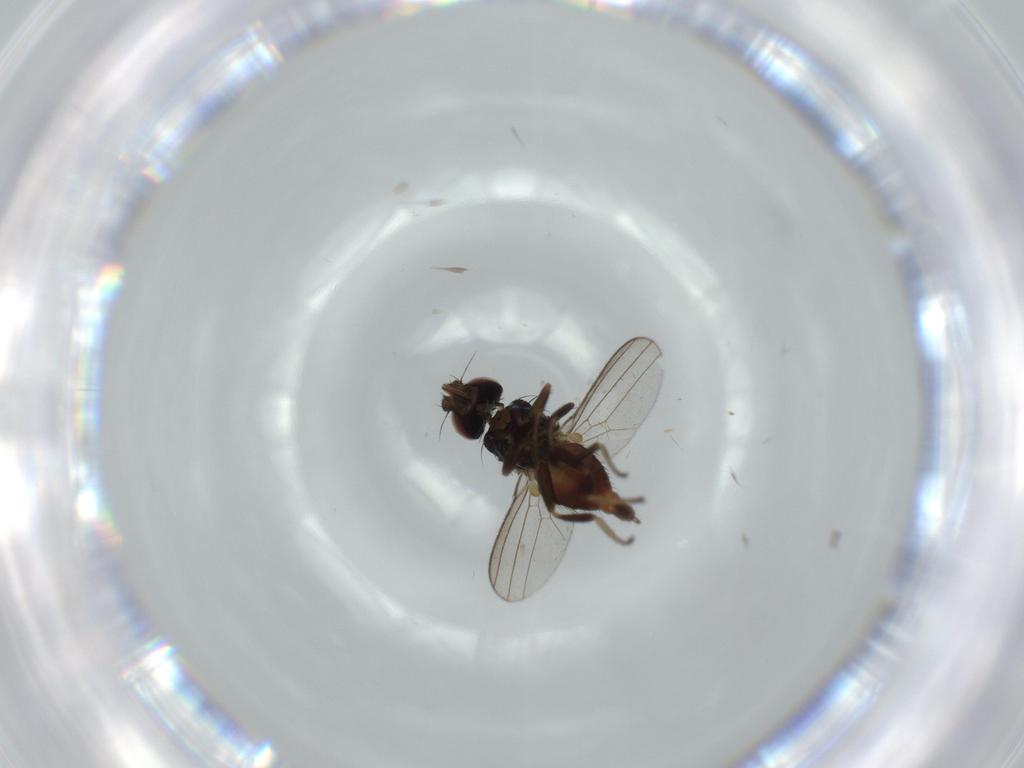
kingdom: Animalia
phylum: Arthropoda
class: Insecta
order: Diptera
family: Milichiidae
